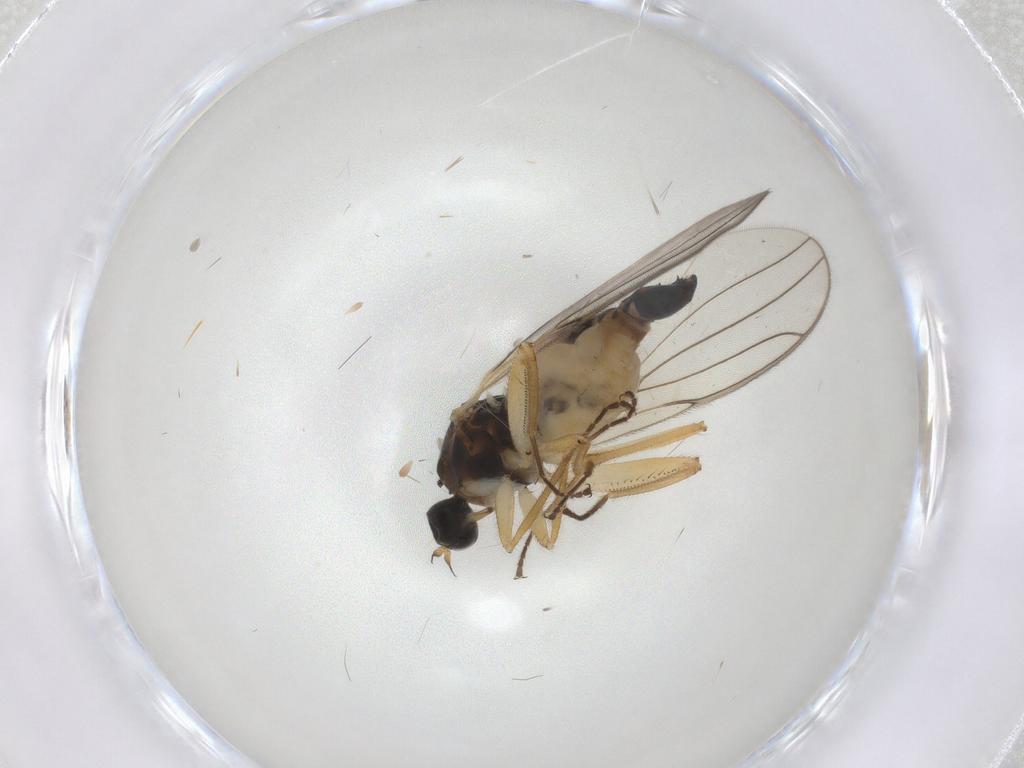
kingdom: Animalia
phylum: Arthropoda
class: Insecta
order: Diptera
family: Hybotidae
